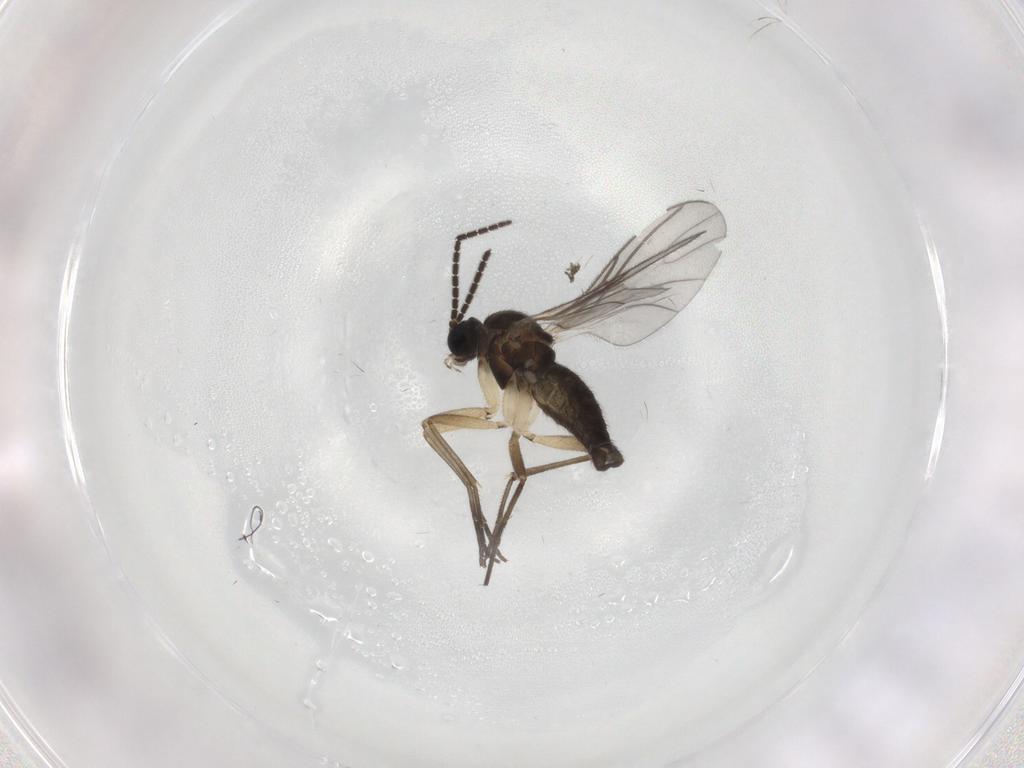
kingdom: Animalia
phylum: Arthropoda
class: Insecta
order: Diptera
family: Sciaridae
